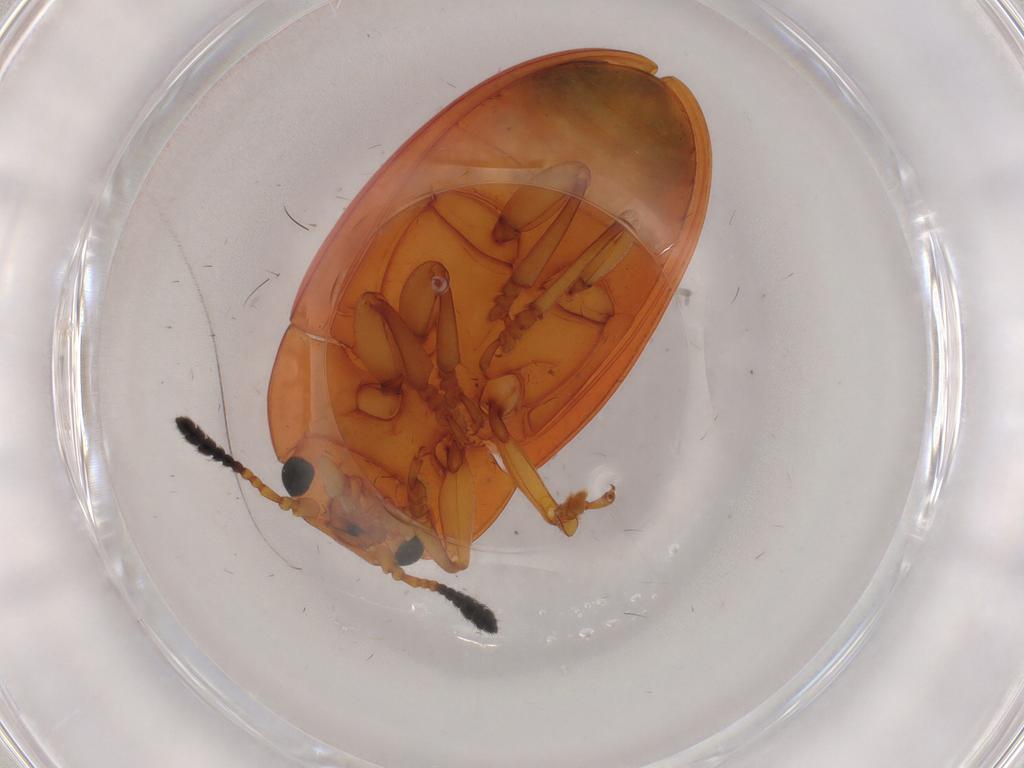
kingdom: Animalia
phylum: Arthropoda
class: Insecta
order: Coleoptera
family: Erotylidae
